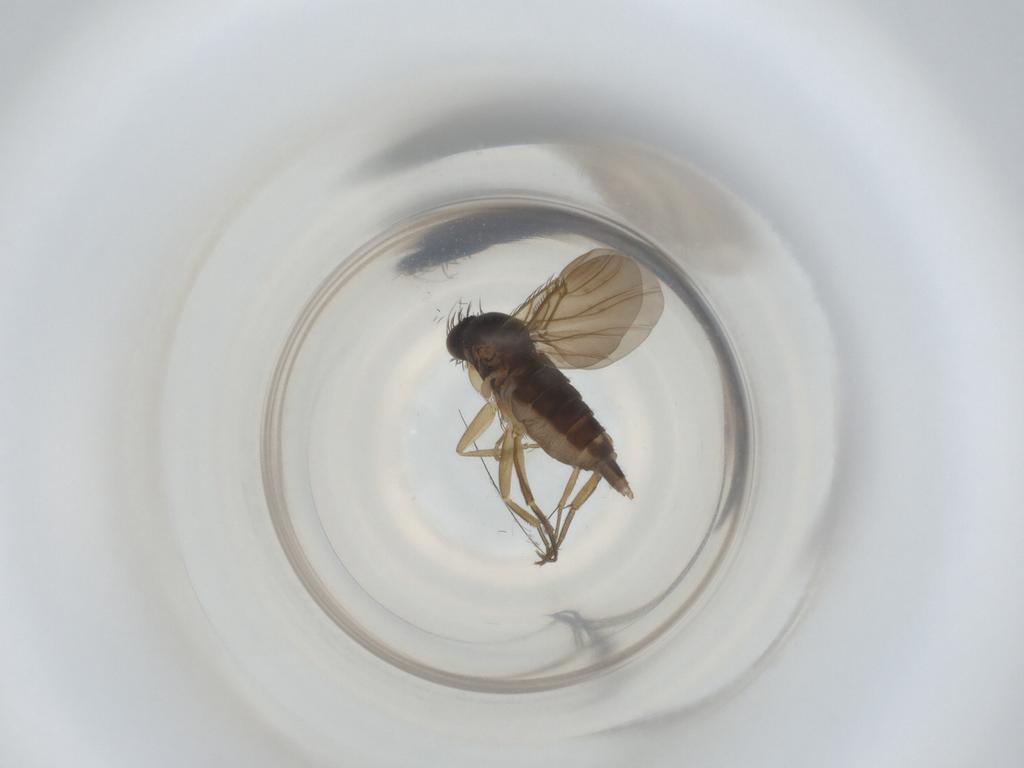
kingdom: Animalia
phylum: Arthropoda
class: Insecta
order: Diptera
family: Phoridae
